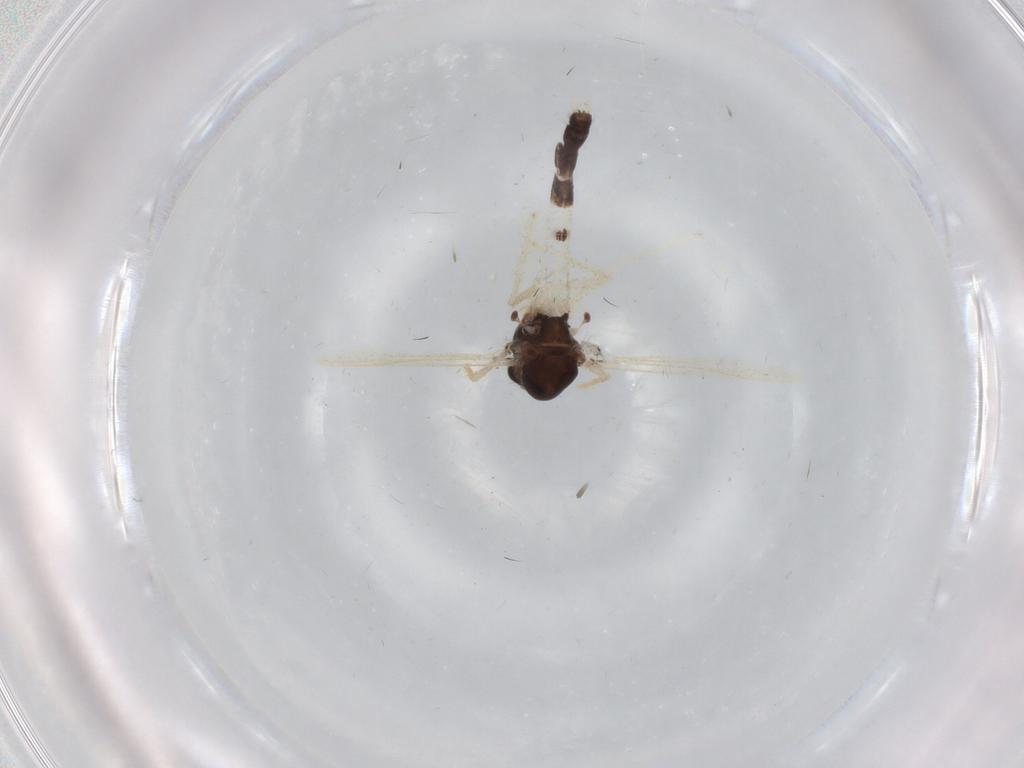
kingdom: Animalia
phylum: Arthropoda
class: Insecta
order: Diptera
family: Chironomidae
